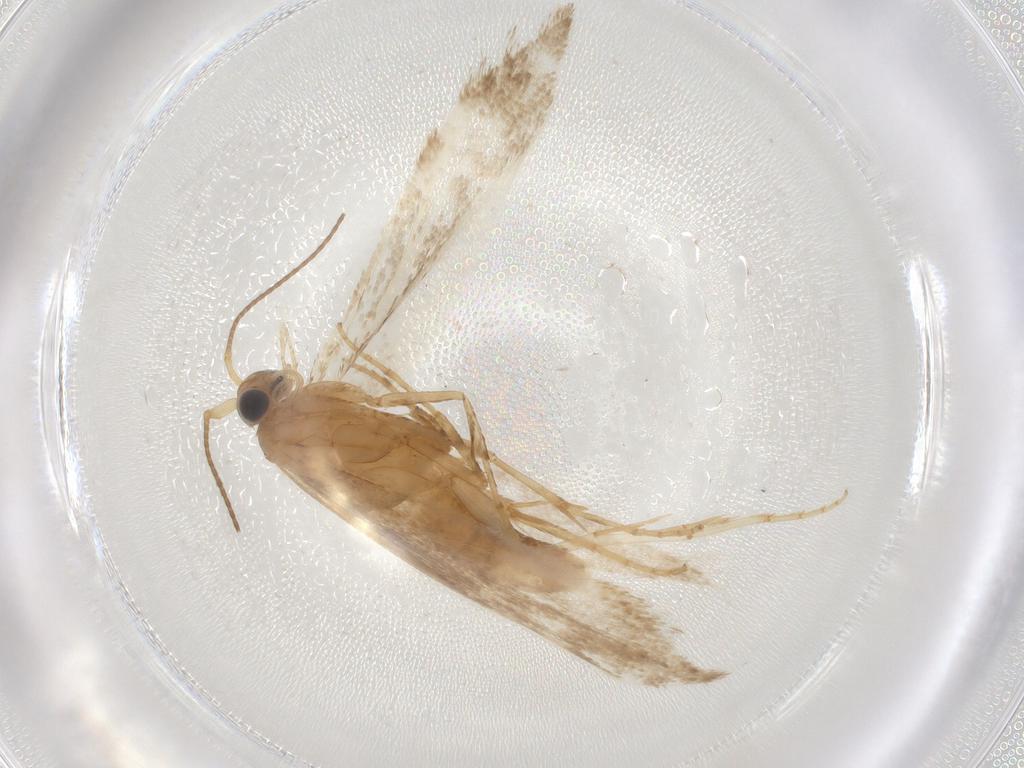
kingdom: Animalia
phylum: Arthropoda
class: Insecta
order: Lepidoptera
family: Argyresthiidae
